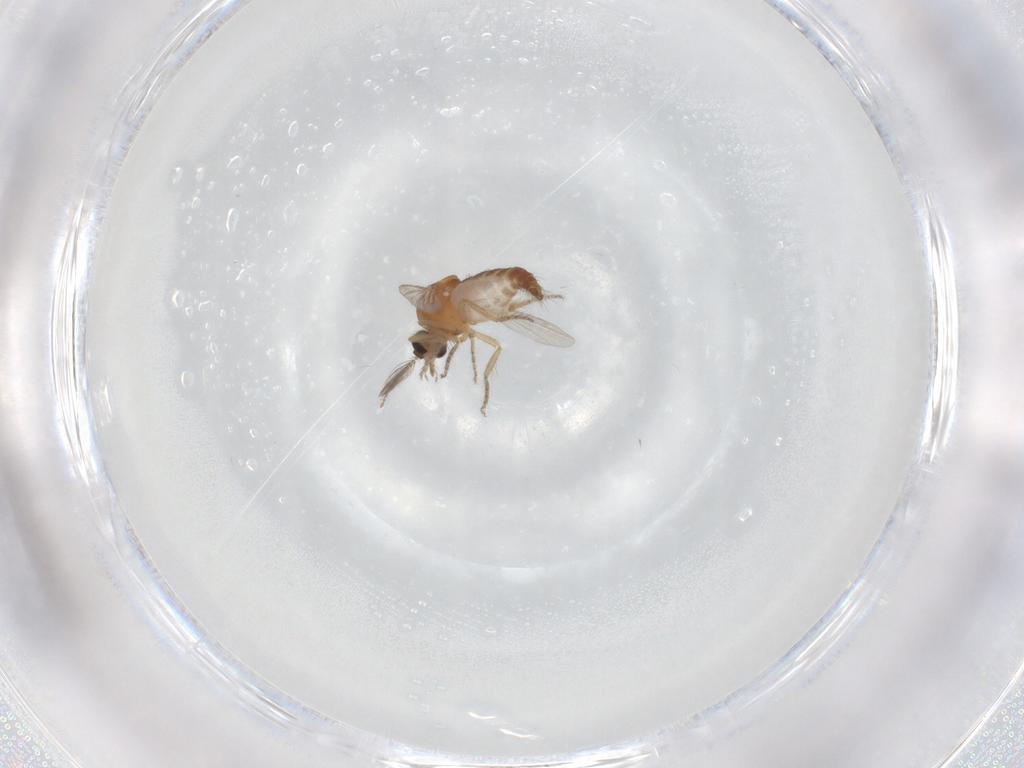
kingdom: Animalia
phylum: Arthropoda
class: Insecta
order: Diptera
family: Ceratopogonidae
